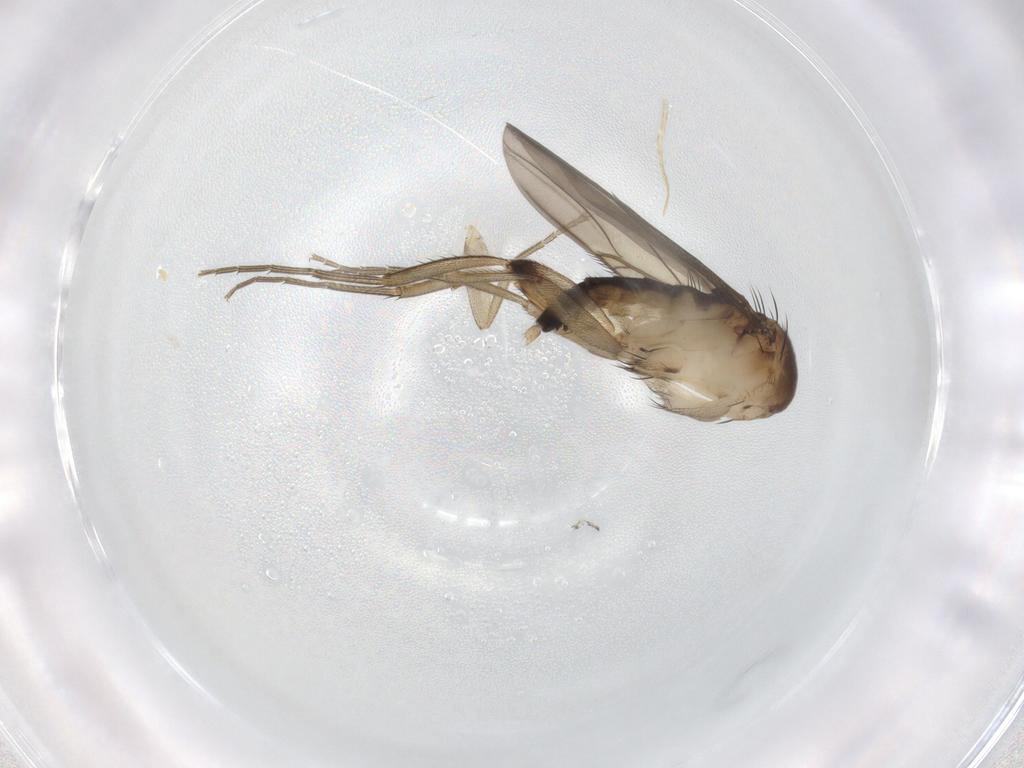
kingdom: Animalia
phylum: Arthropoda
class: Insecta
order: Diptera
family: Phoridae
